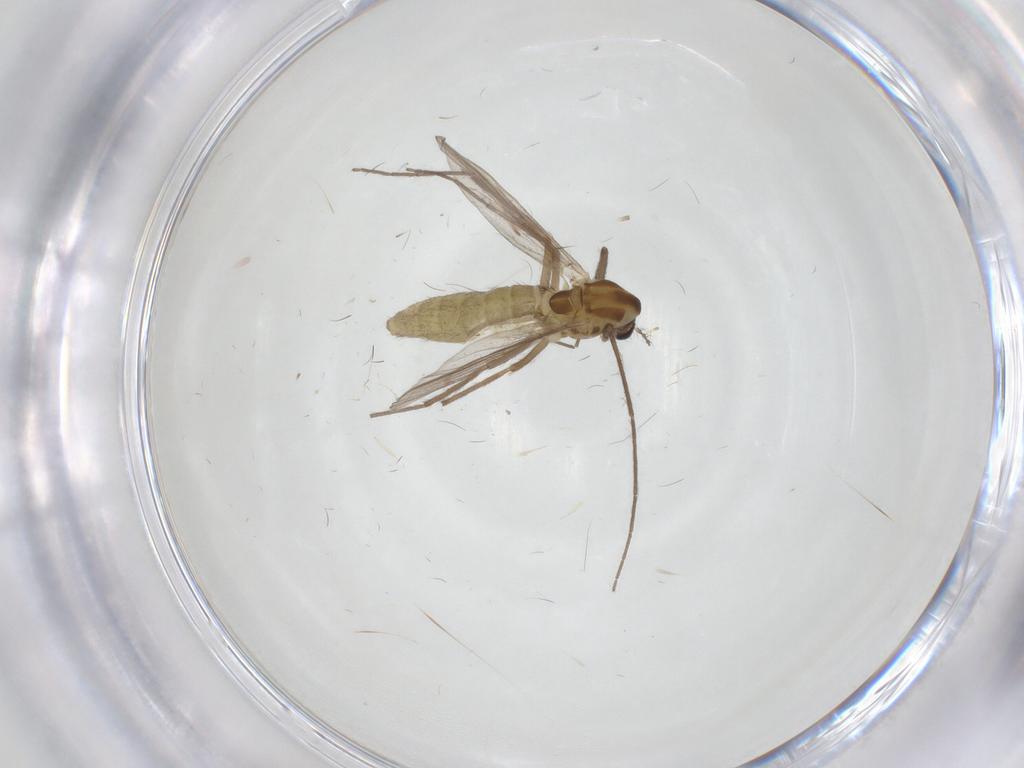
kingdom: Animalia
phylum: Arthropoda
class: Insecta
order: Diptera
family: Chironomidae
